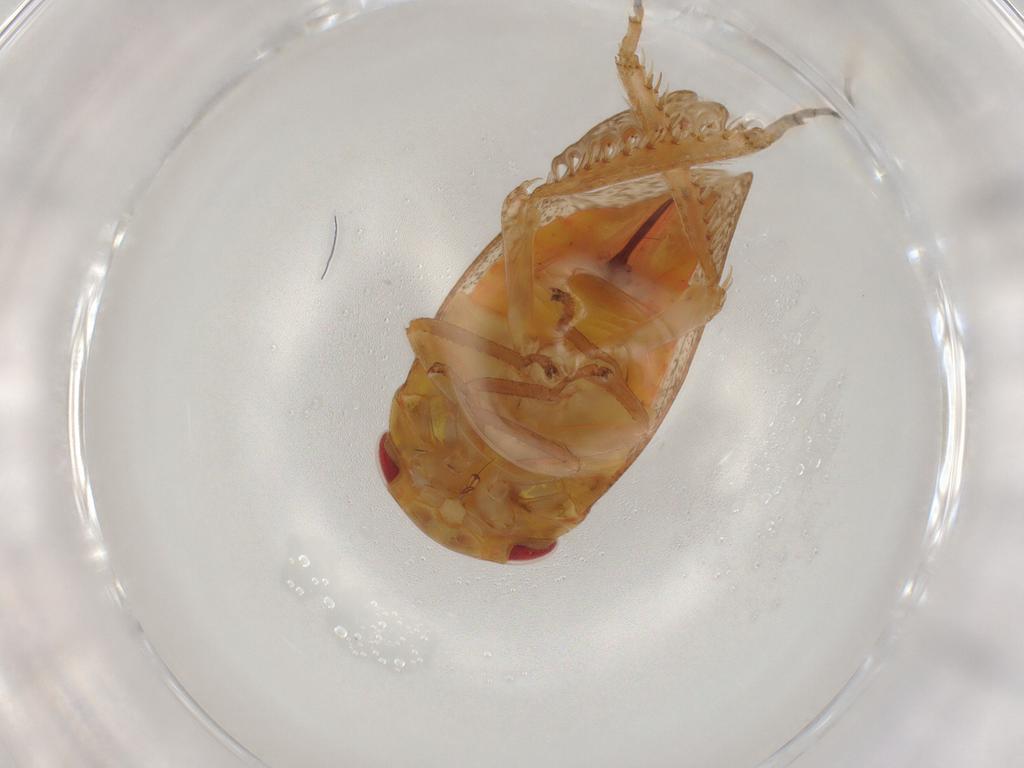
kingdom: Animalia
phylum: Arthropoda
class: Insecta
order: Hemiptera
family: Cicadellidae
